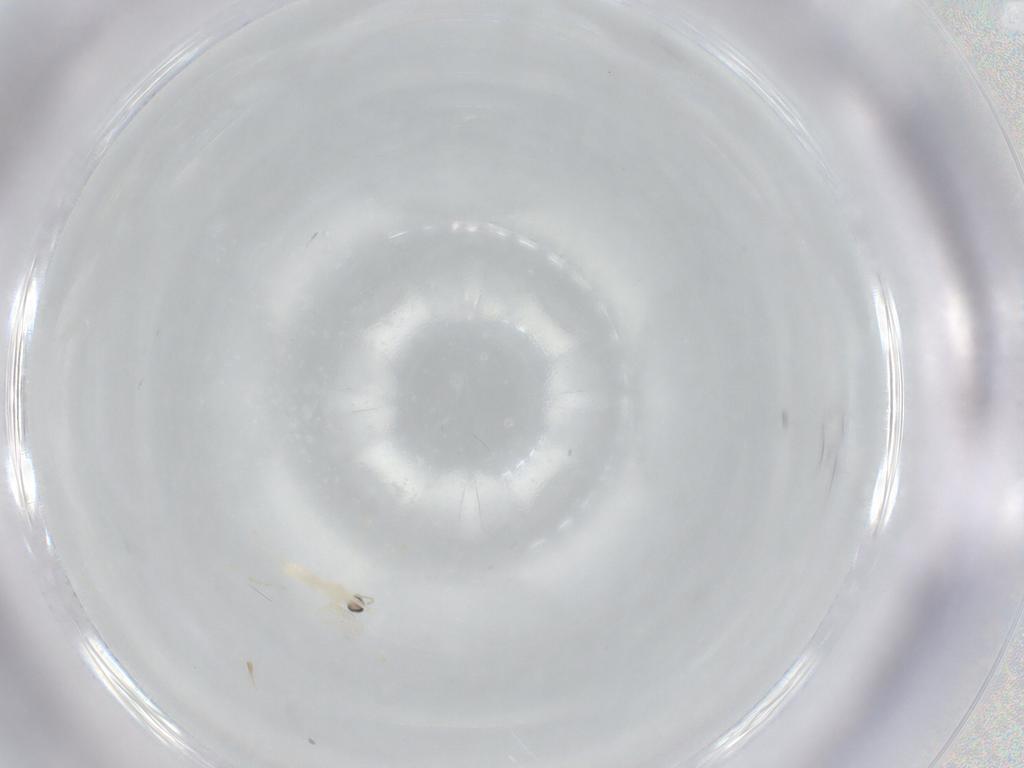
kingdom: Animalia
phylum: Arthropoda
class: Insecta
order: Diptera
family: Cecidomyiidae
